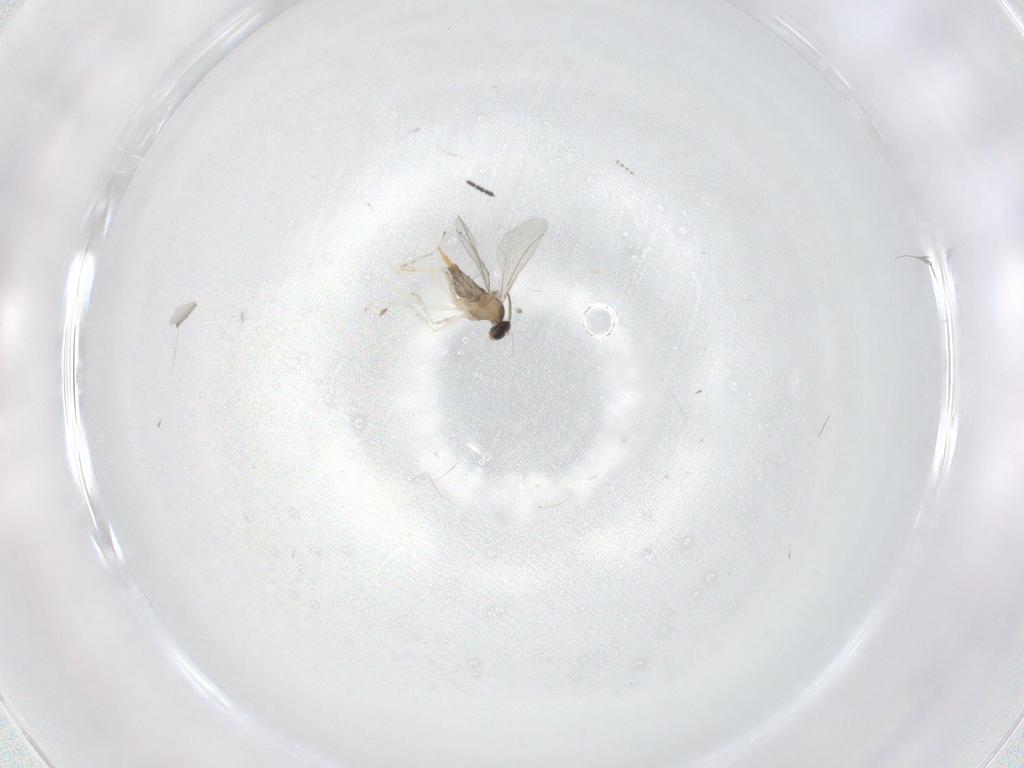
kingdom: Animalia
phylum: Arthropoda
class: Insecta
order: Diptera
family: Cecidomyiidae
